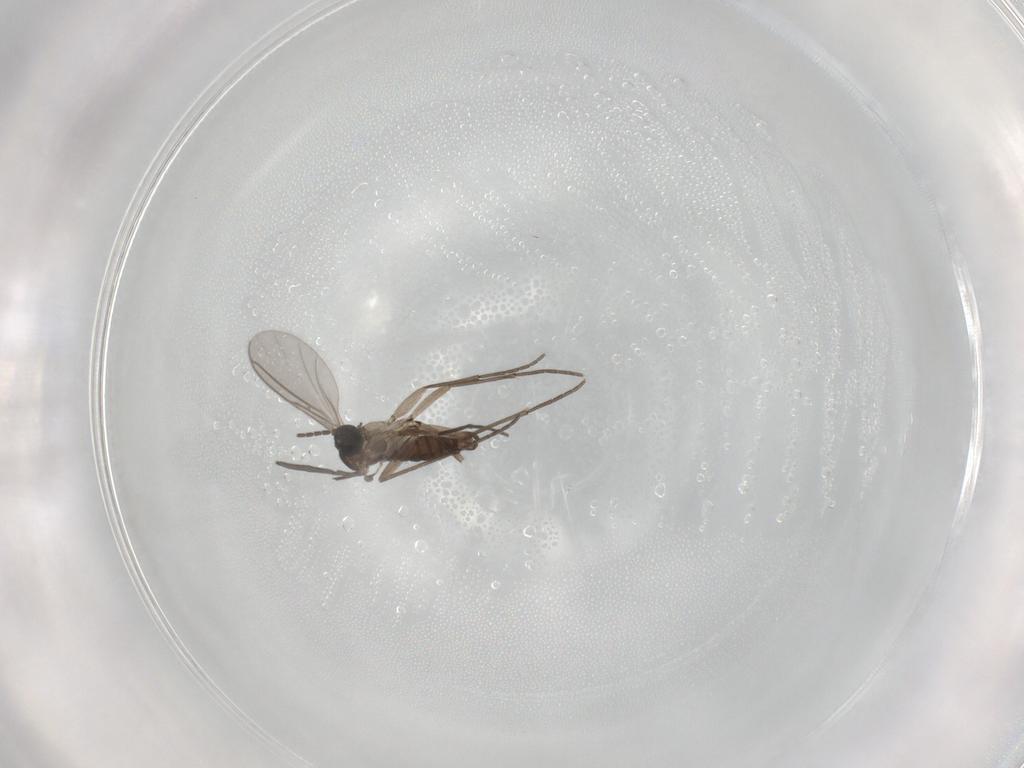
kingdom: Animalia
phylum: Arthropoda
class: Insecta
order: Diptera
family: Sciaridae
